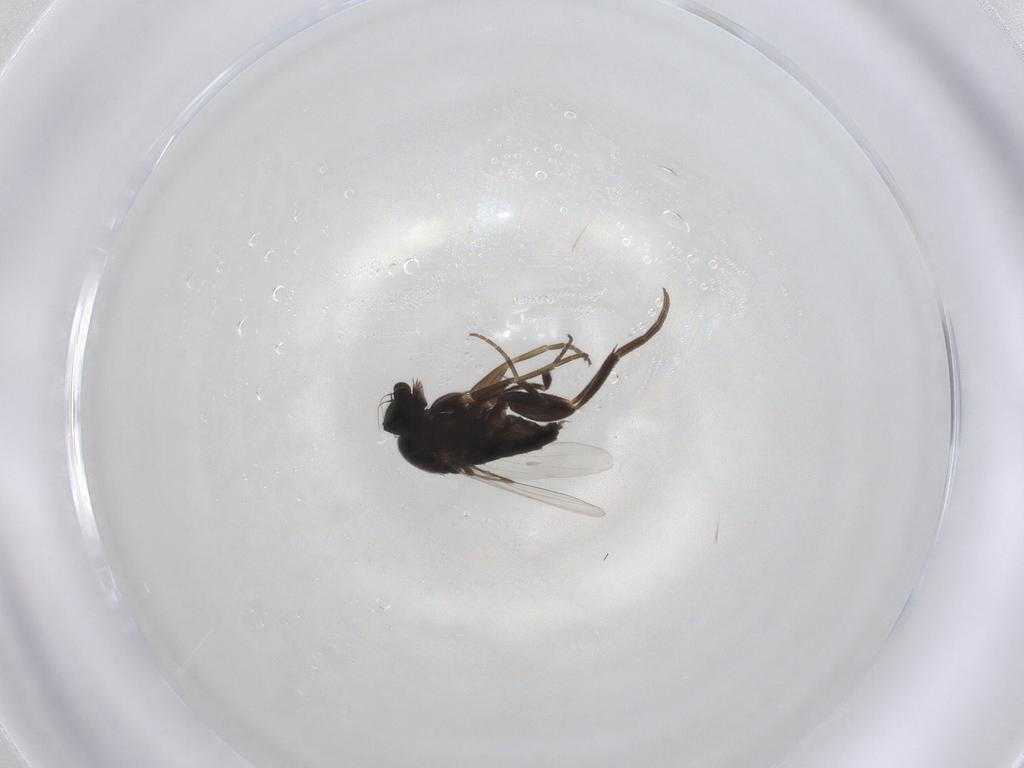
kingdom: Animalia
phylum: Arthropoda
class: Insecta
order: Diptera
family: Phoridae
